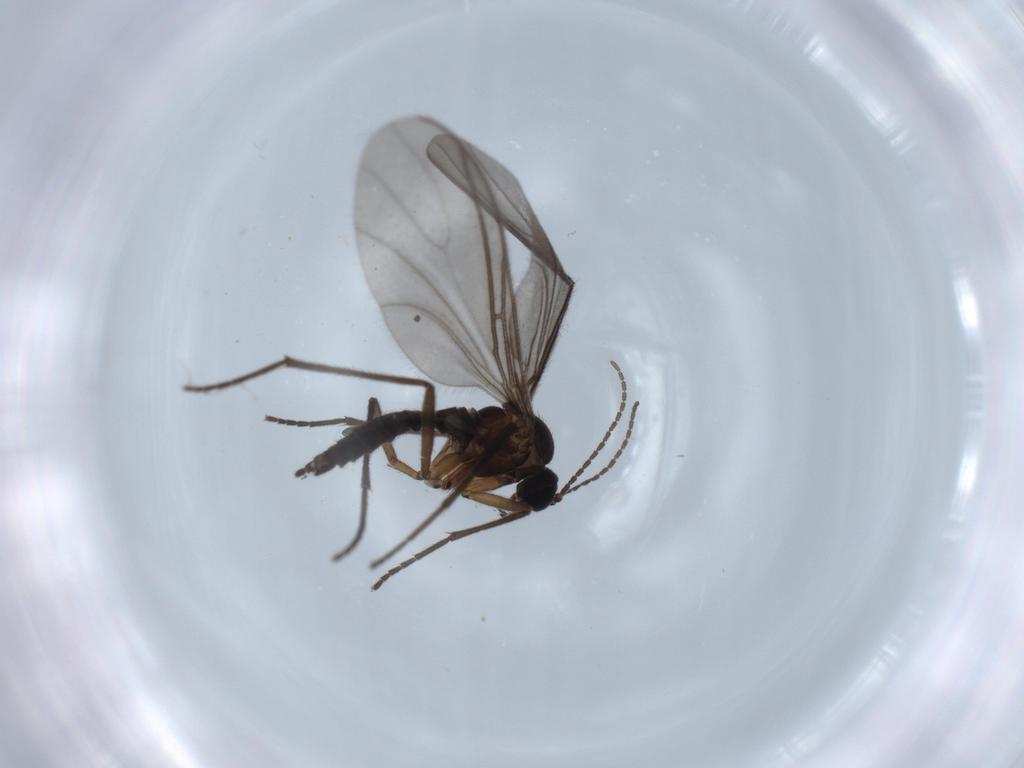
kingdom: Animalia
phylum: Arthropoda
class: Insecta
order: Diptera
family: Sciaridae
